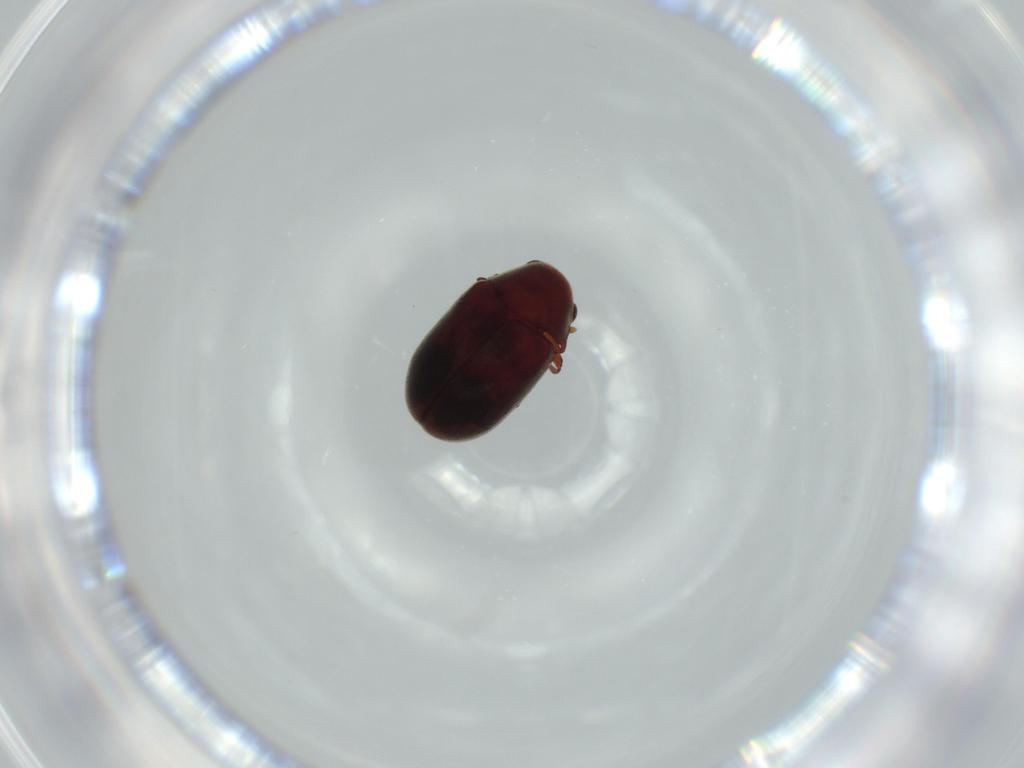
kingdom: Animalia
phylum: Arthropoda
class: Insecta
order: Coleoptera
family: Ptinidae
